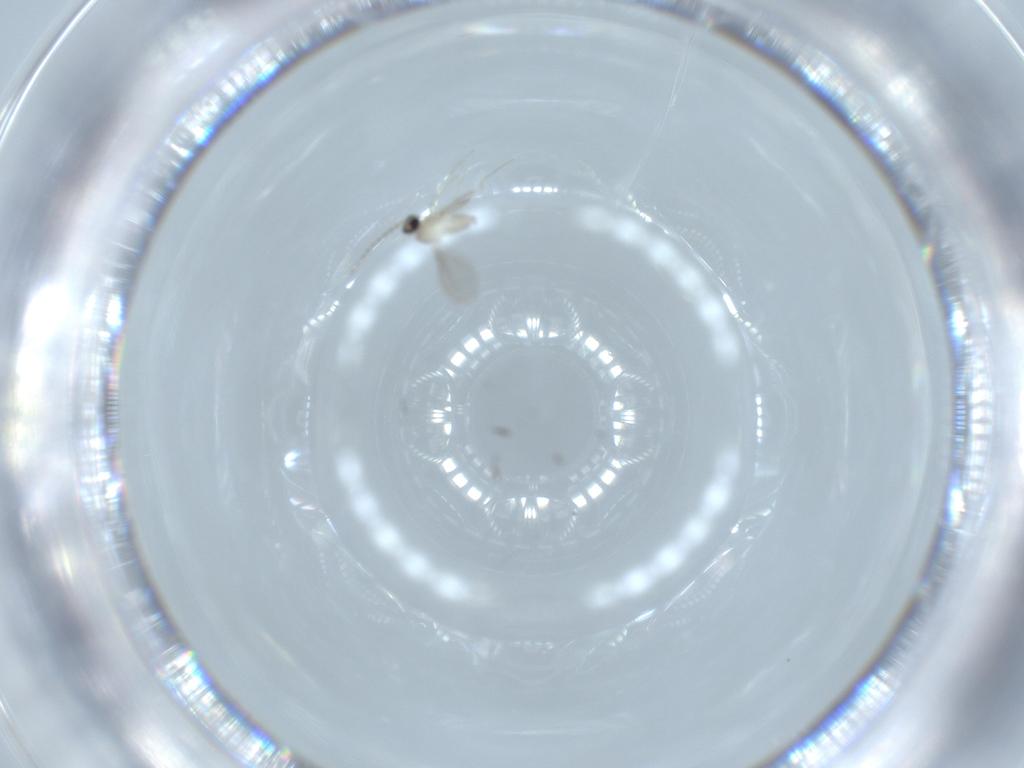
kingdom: Animalia
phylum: Arthropoda
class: Insecta
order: Diptera
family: Cecidomyiidae
